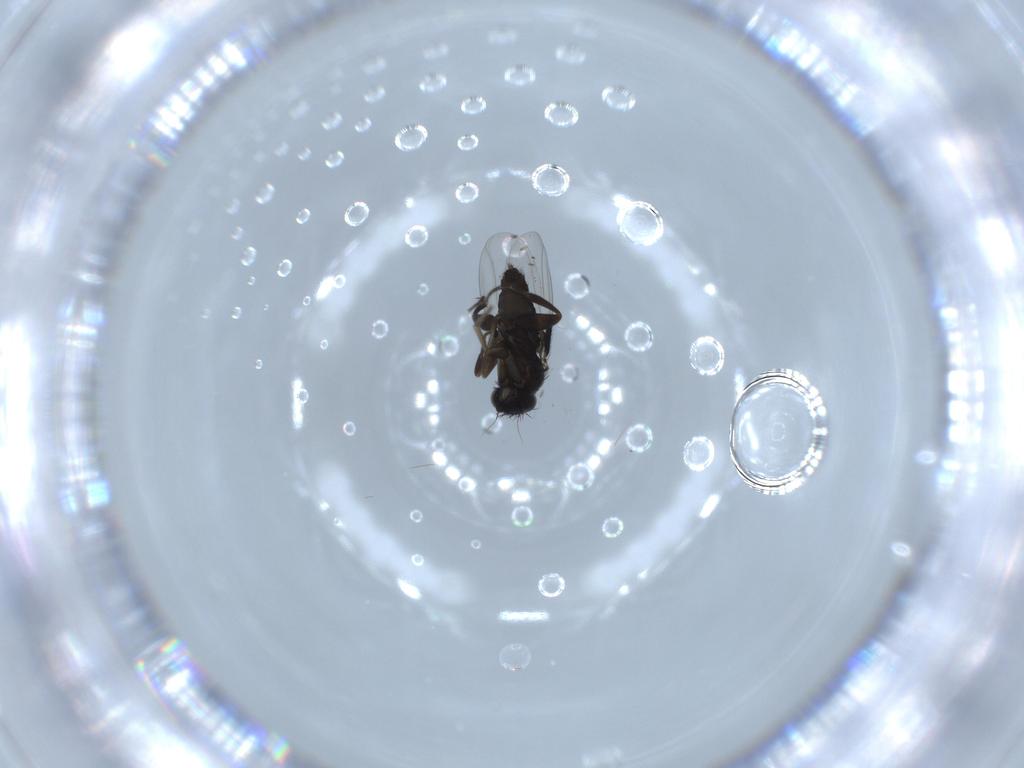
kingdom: Animalia
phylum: Arthropoda
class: Insecta
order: Diptera
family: Phoridae
